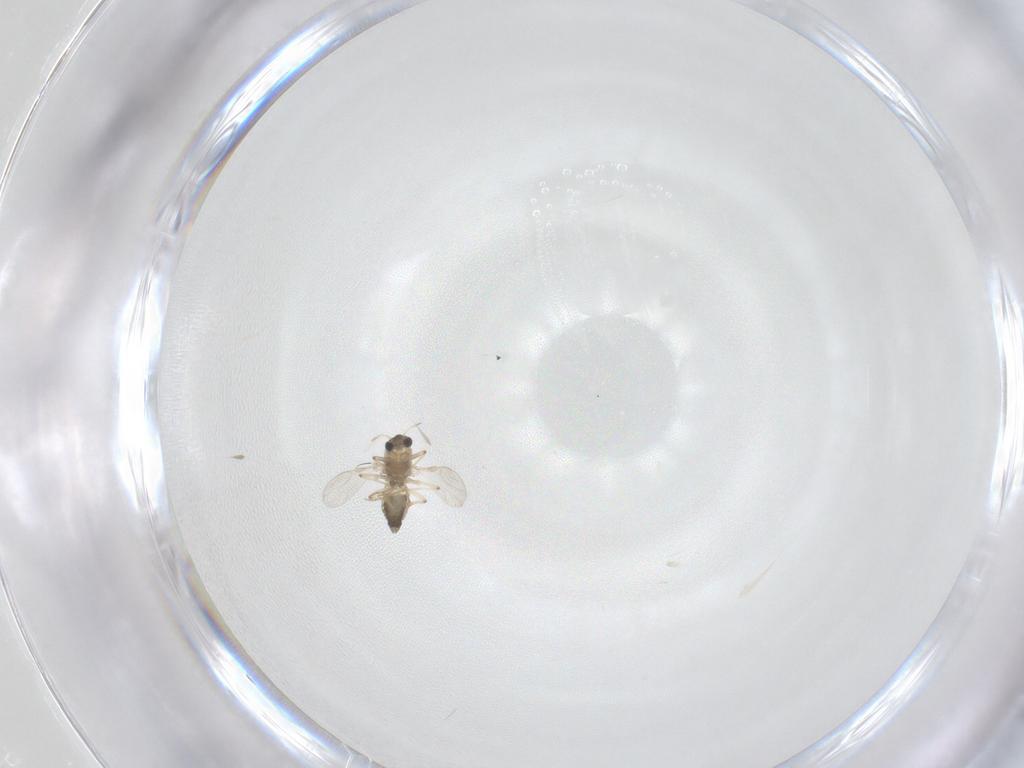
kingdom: Animalia
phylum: Arthropoda
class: Insecta
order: Diptera
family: Chironomidae
